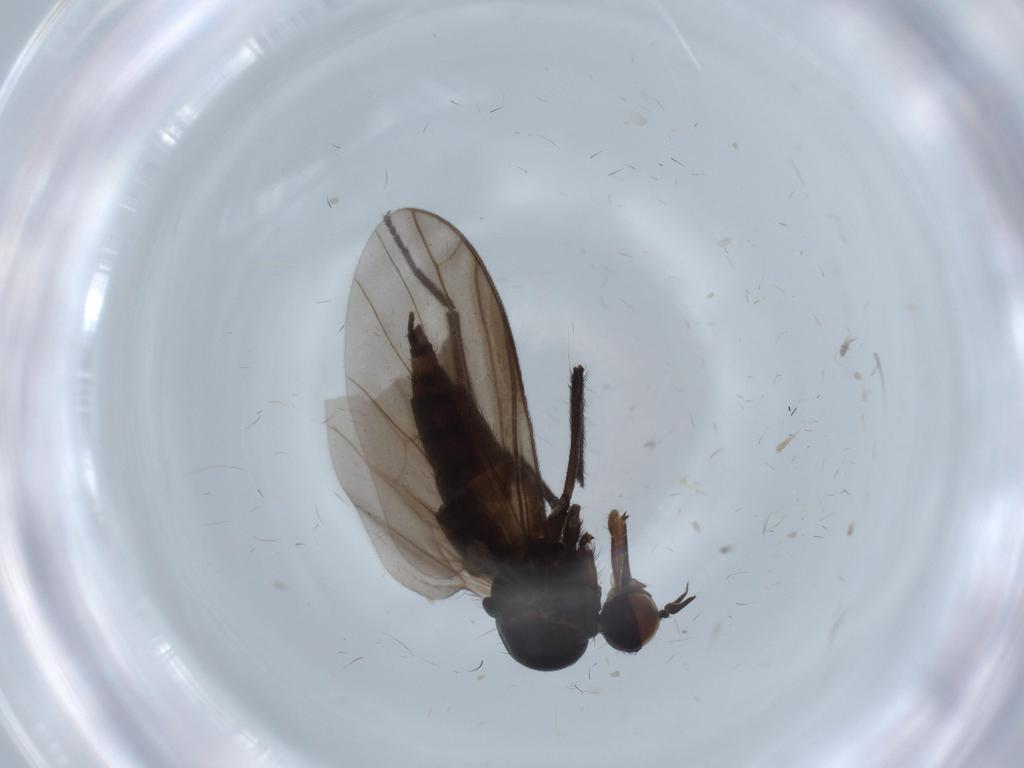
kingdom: Animalia
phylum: Arthropoda
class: Insecta
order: Diptera
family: Empididae
